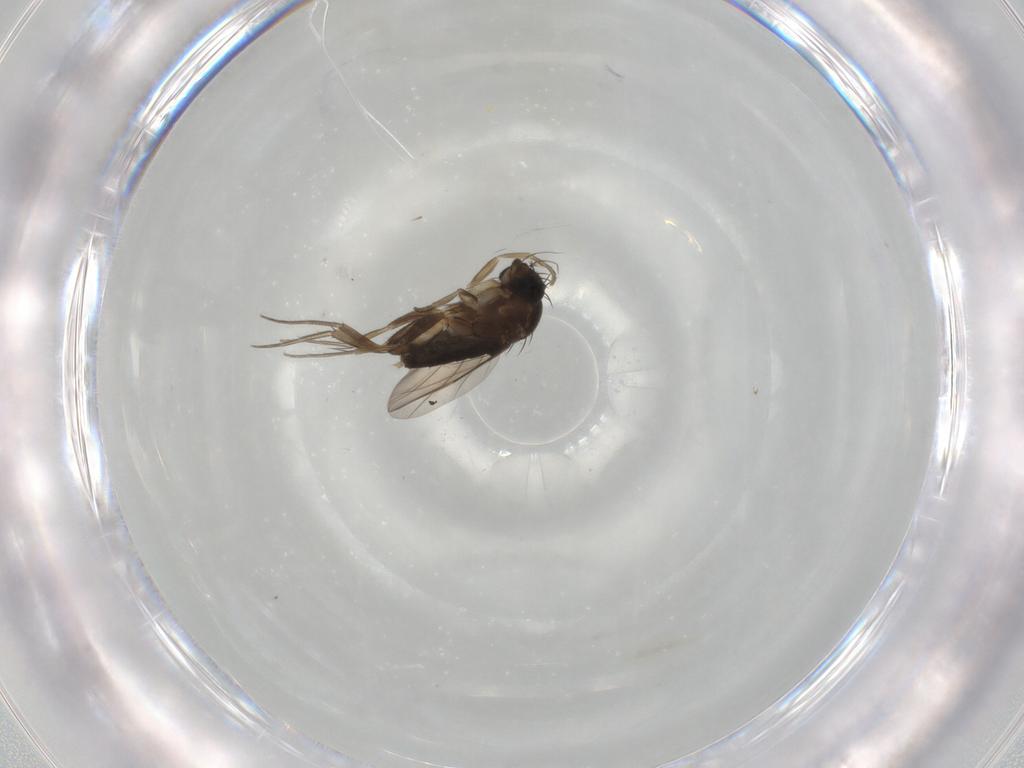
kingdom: Animalia
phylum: Arthropoda
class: Insecta
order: Diptera
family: Phoridae
